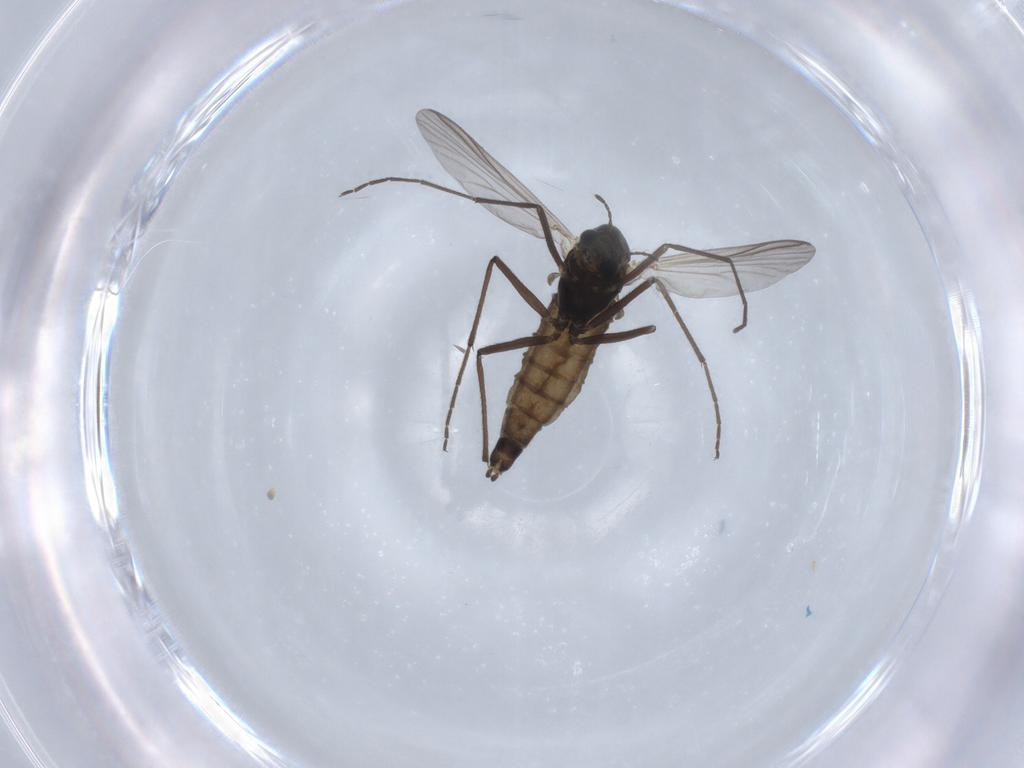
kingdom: Animalia
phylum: Arthropoda
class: Insecta
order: Diptera
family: Chironomidae
